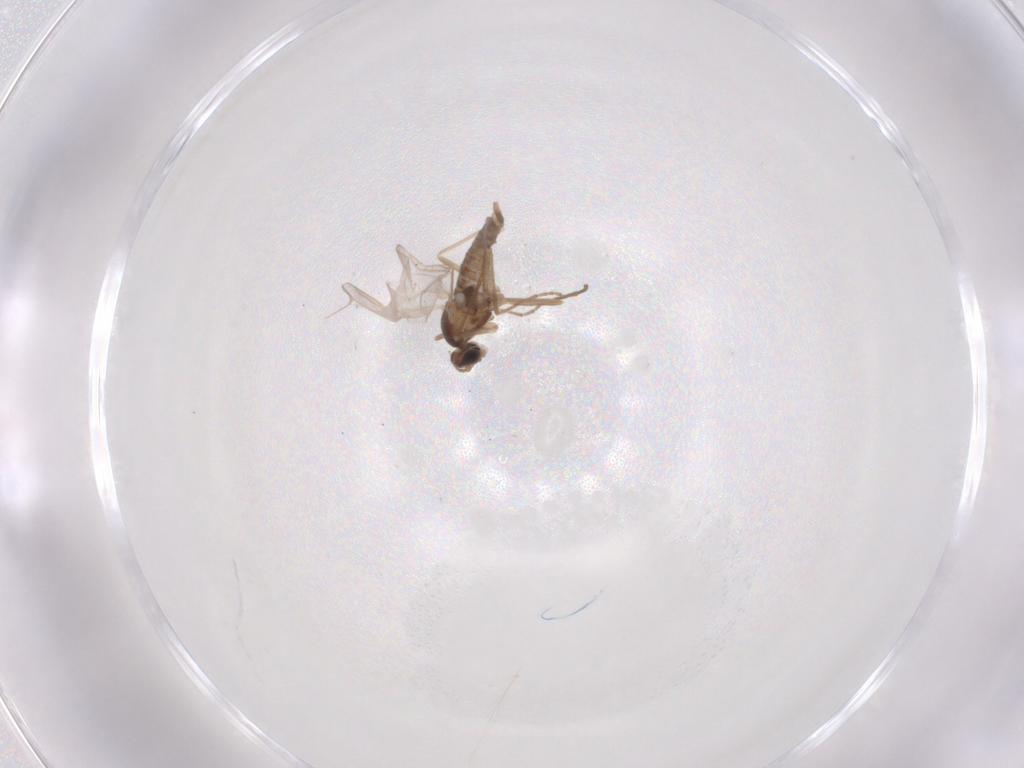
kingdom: Animalia
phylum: Arthropoda
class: Insecta
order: Diptera
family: Cecidomyiidae
